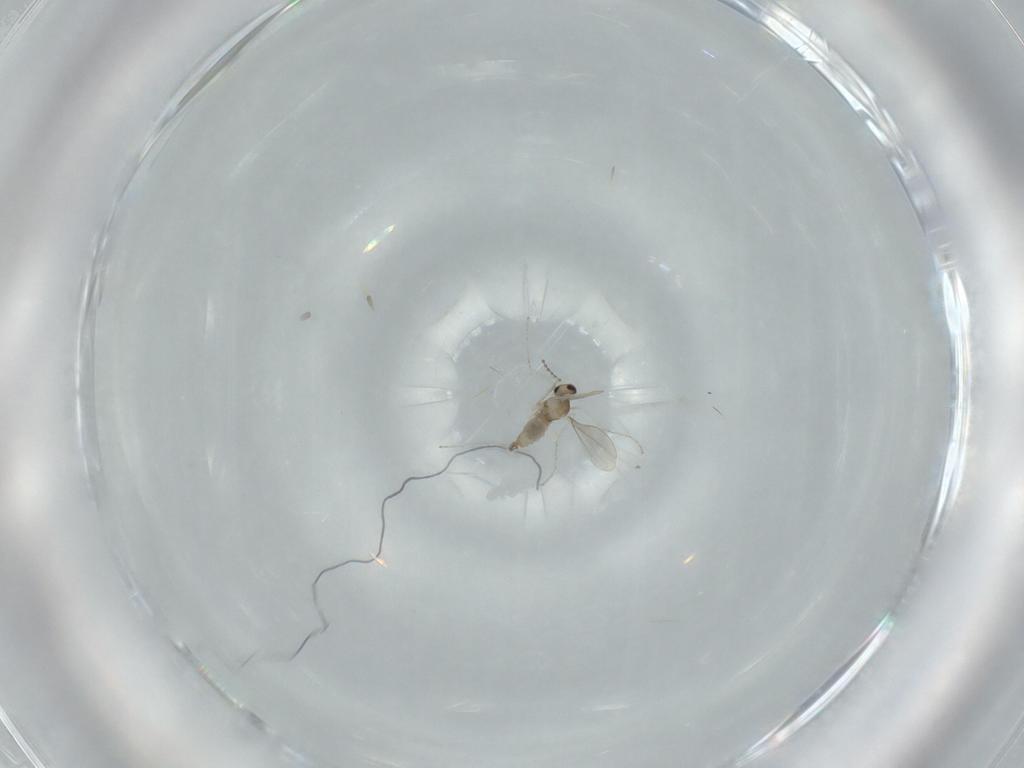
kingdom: Animalia
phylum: Arthropoda
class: Insecta
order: Diptera
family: Cecidomyiidae
